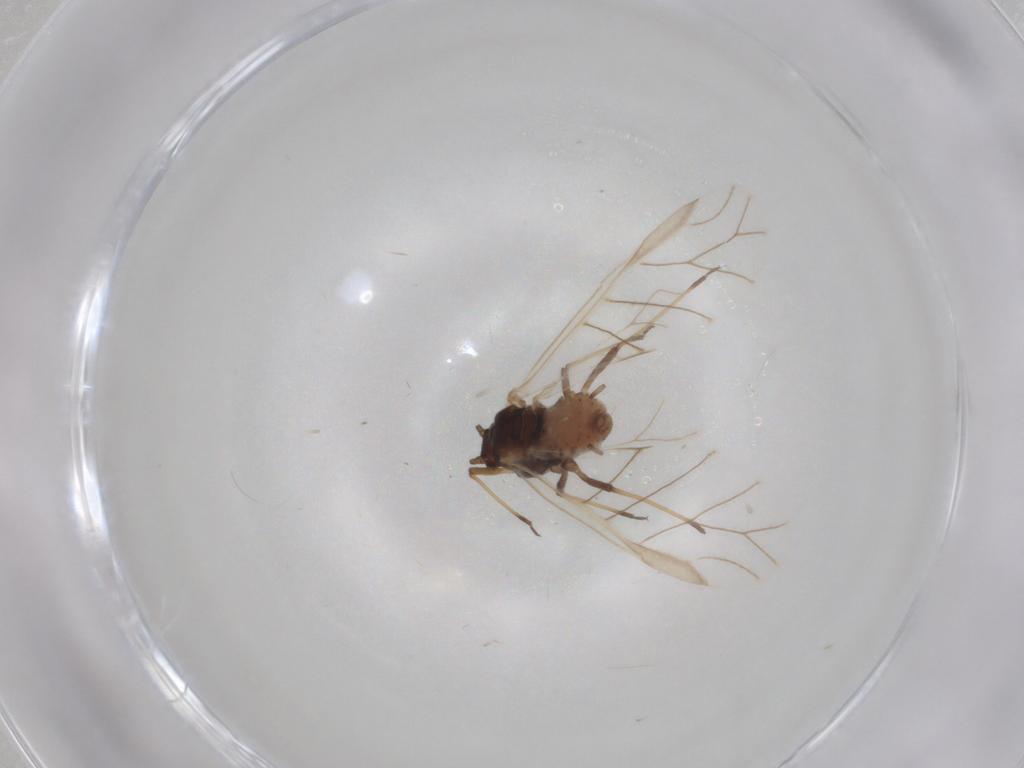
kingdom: Animalia
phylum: Arthropoda
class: Insecta
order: Hemiptera
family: Aphididae
